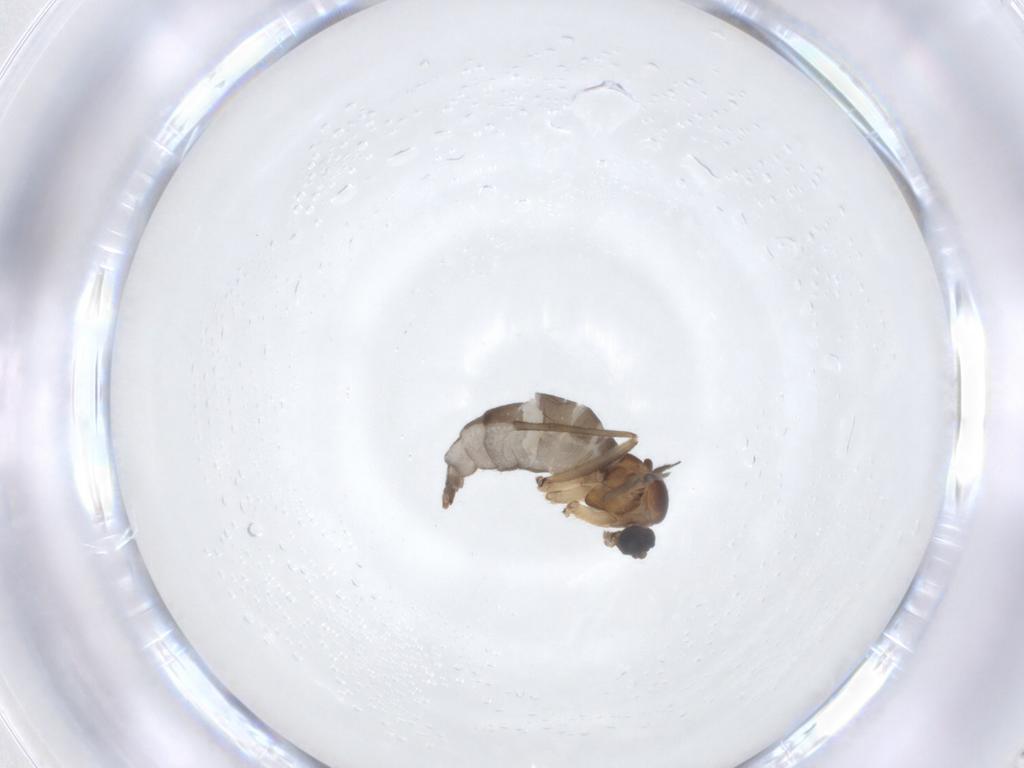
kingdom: Animalia
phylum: Arthropoda
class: Insecta
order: Diptera
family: Sciaridae
